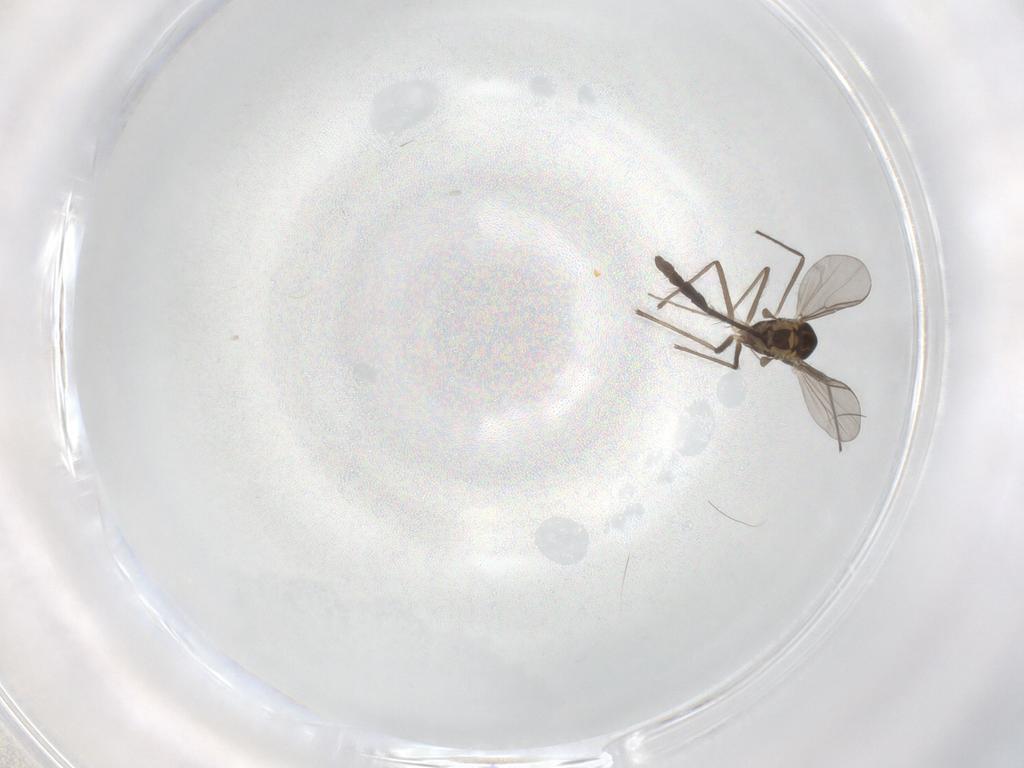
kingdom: Animalia
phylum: Arthropoda
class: Insecta
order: Diptera
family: Chironomidae
